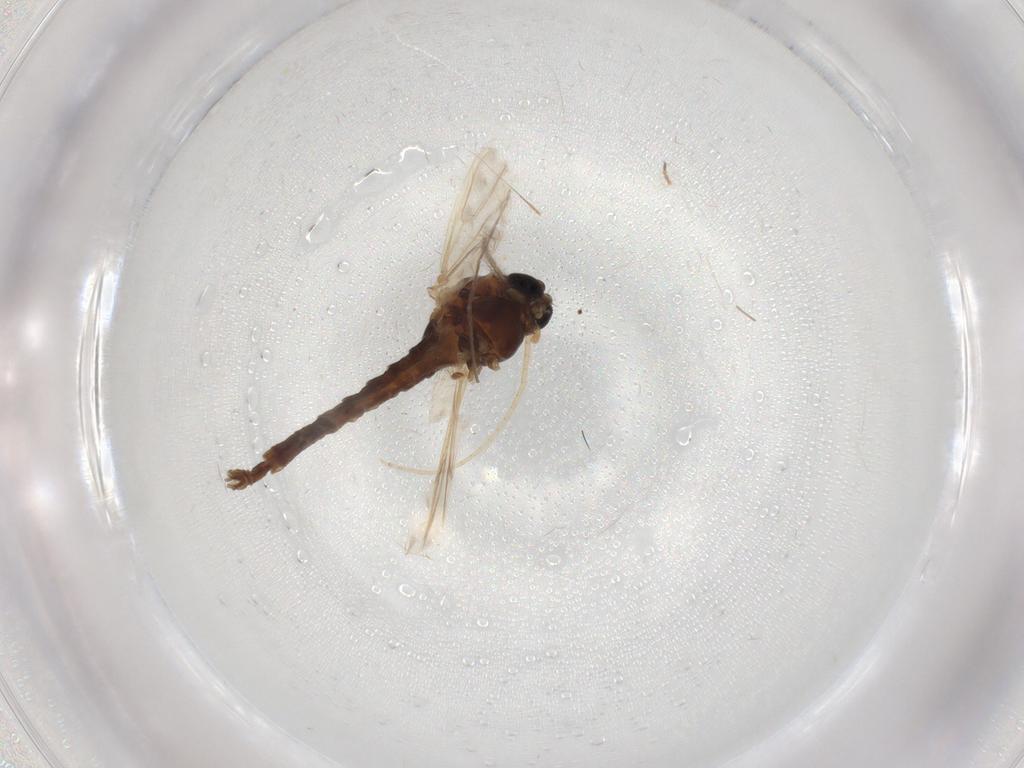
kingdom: Animalia
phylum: Arthropoda
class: Insecta
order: Diptera
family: Chironomidae
